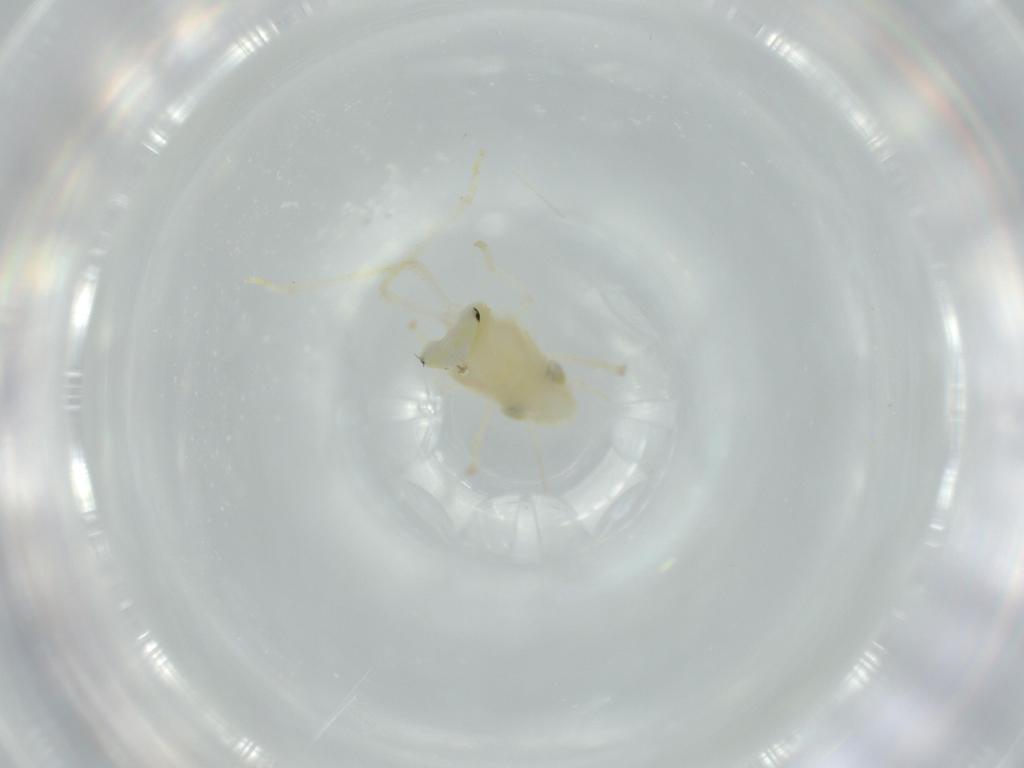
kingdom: Animalia
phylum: Arthropoda
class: Insecta
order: Hemiptera
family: Cicadellidae
